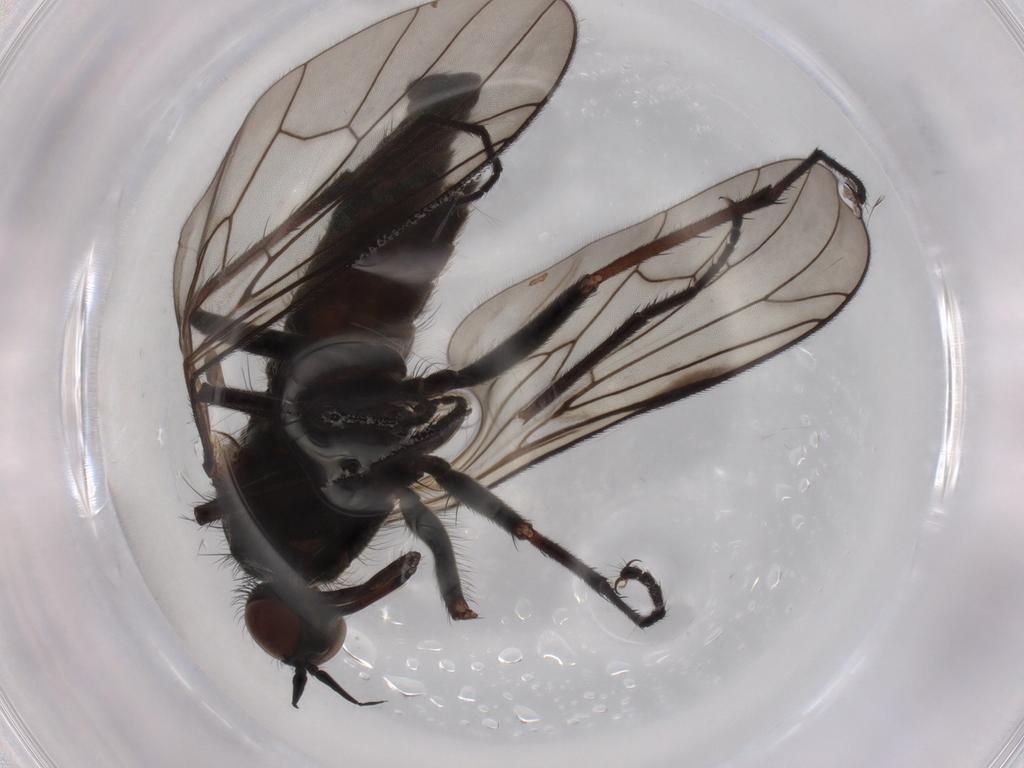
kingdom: Animalia
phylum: Arthropoda
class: Insecta
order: Diptera
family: Empididae
